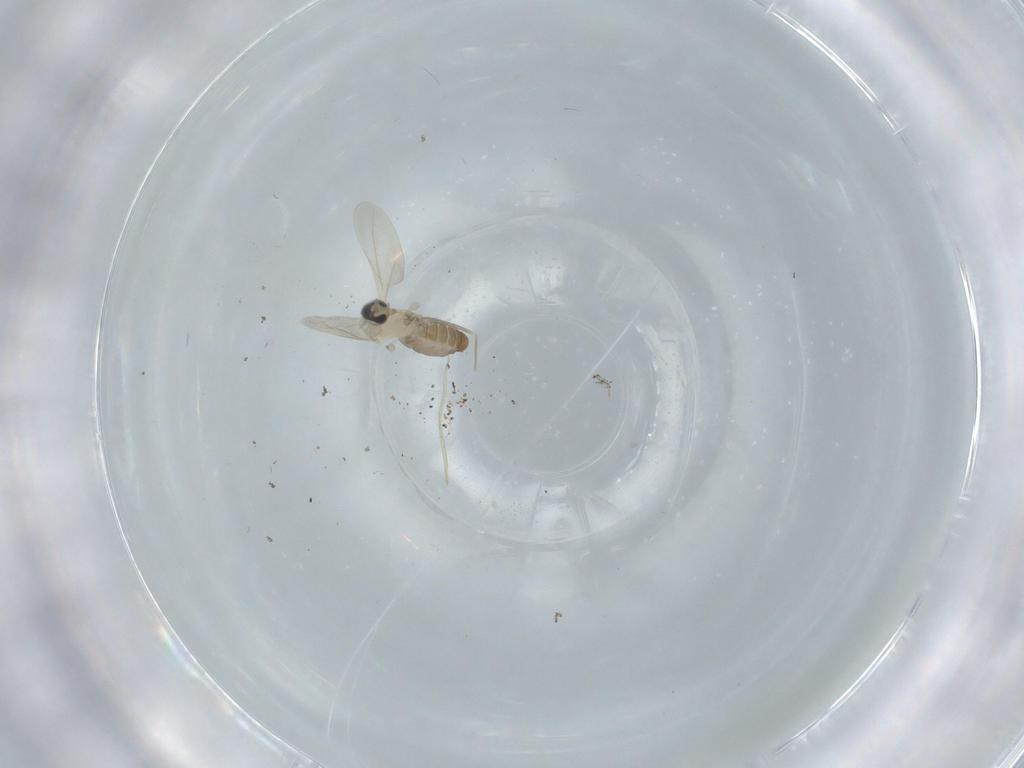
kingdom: Animalia
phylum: Arthropoda
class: Insecta
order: Diptera
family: Cecidomyiidae
